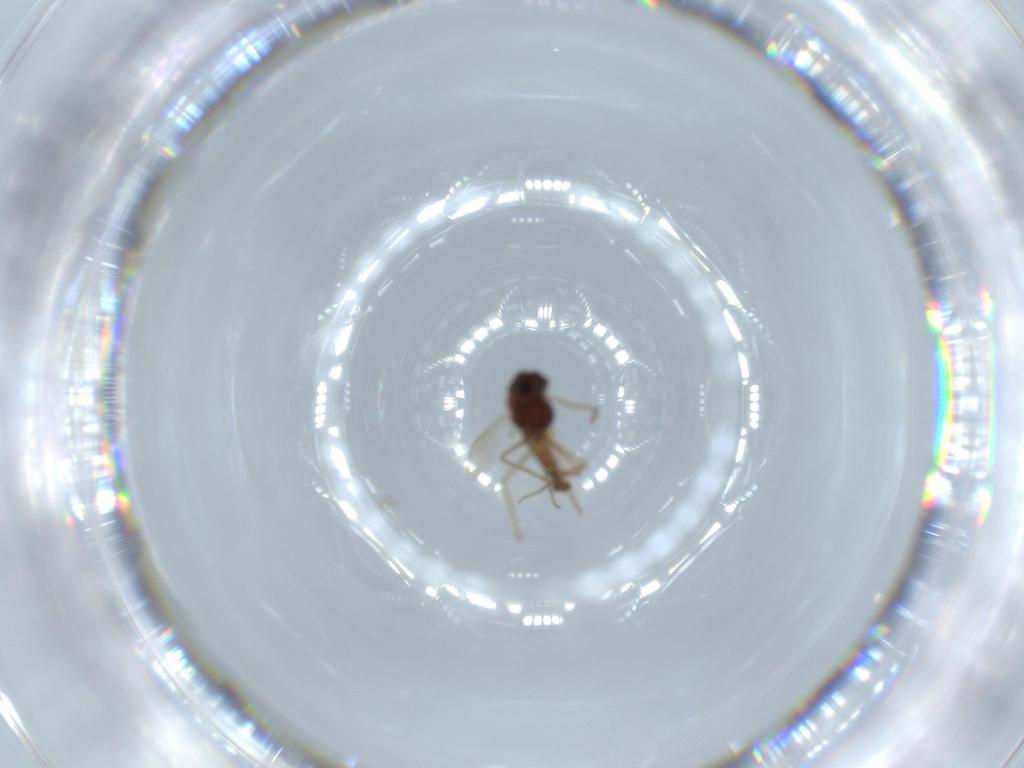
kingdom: Animalia
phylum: Arthropoda
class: Insecta
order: Diptera
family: Chironomidae
